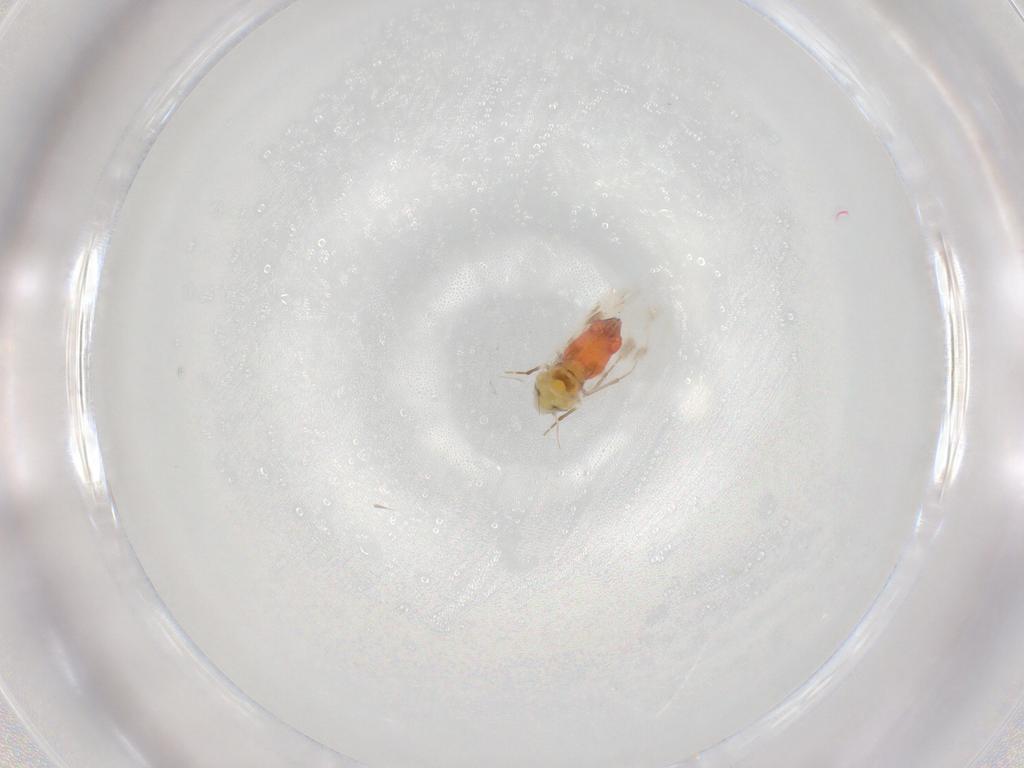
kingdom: Animalia
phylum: Arthropoda
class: Insecta
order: Hemiptera
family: Aleyrodidae
